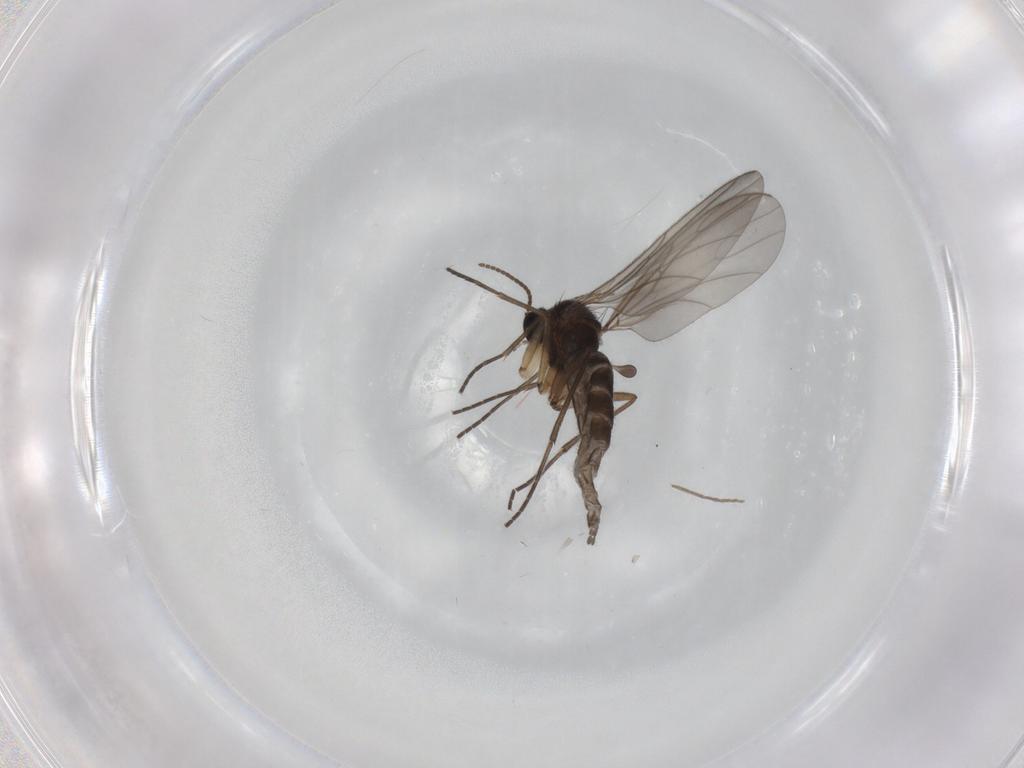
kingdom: Animalia
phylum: Arthropoda
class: Insecta
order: Diptera
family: Sciaridae
